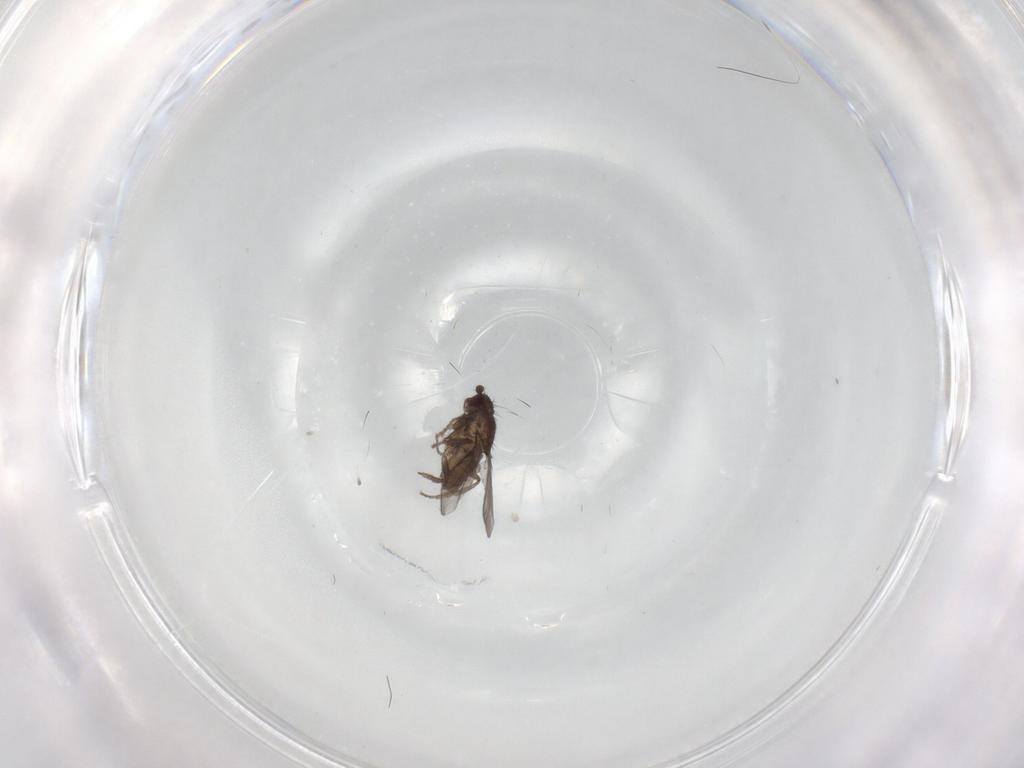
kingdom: Animalia
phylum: Arthropoda
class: Insecta
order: Diptera
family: Sphaeroceridae
